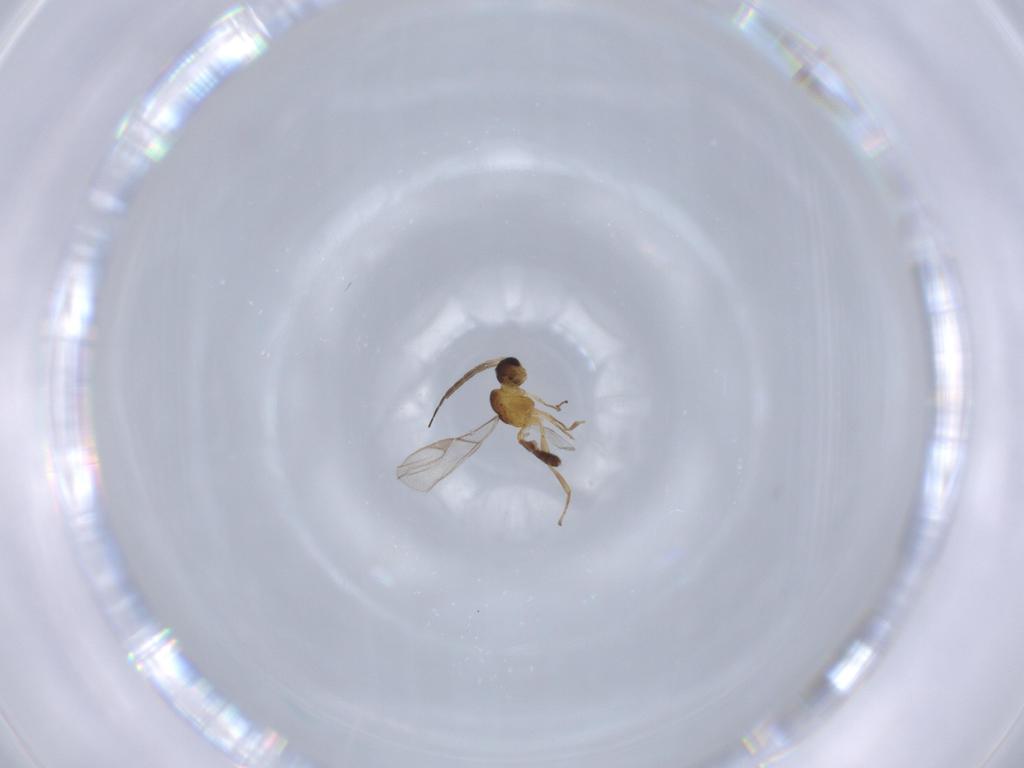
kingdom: Animalia
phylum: Arthropoda
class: Insecta
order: Hymenoptera
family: Braconidae
